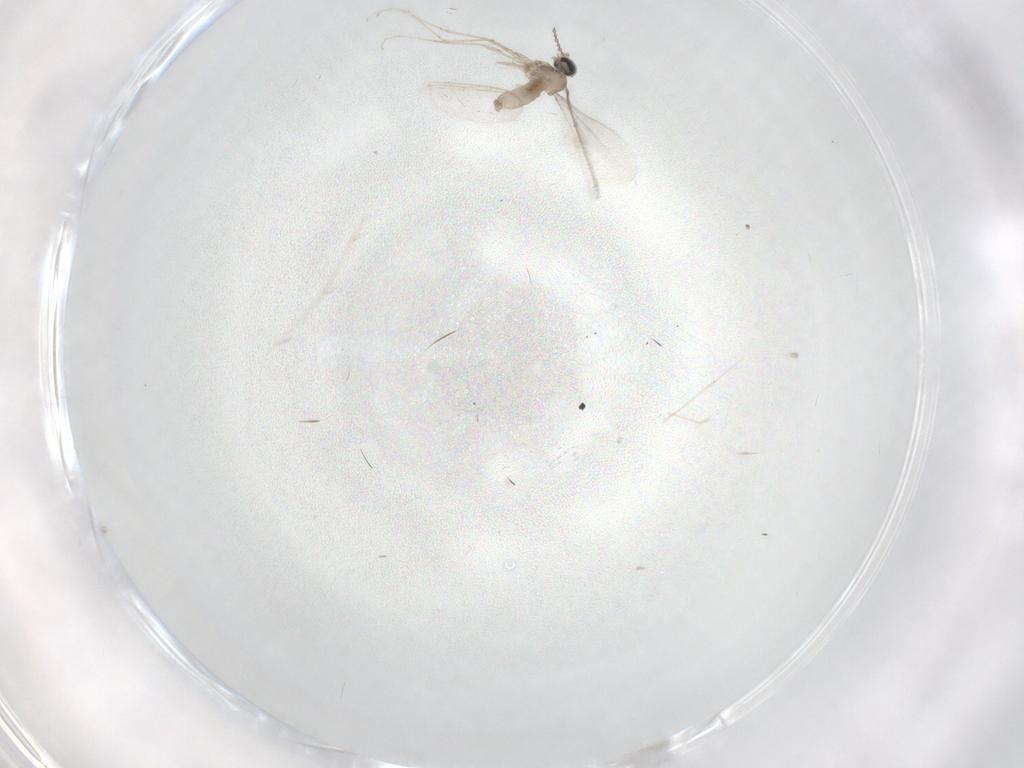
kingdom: Animalia
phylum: Arthropoda
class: Insecta
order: Diptera
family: Cecidomyiidae
